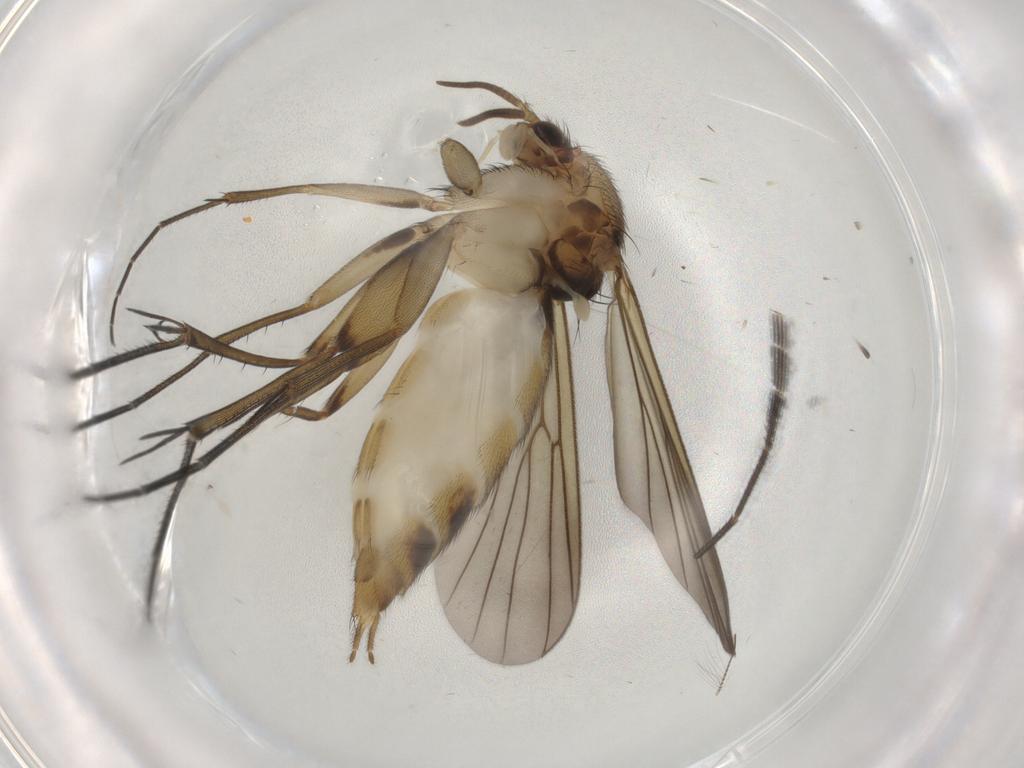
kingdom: Animalia
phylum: Arthropoda
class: Insecta
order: Diptera
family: Mycetophilidae
